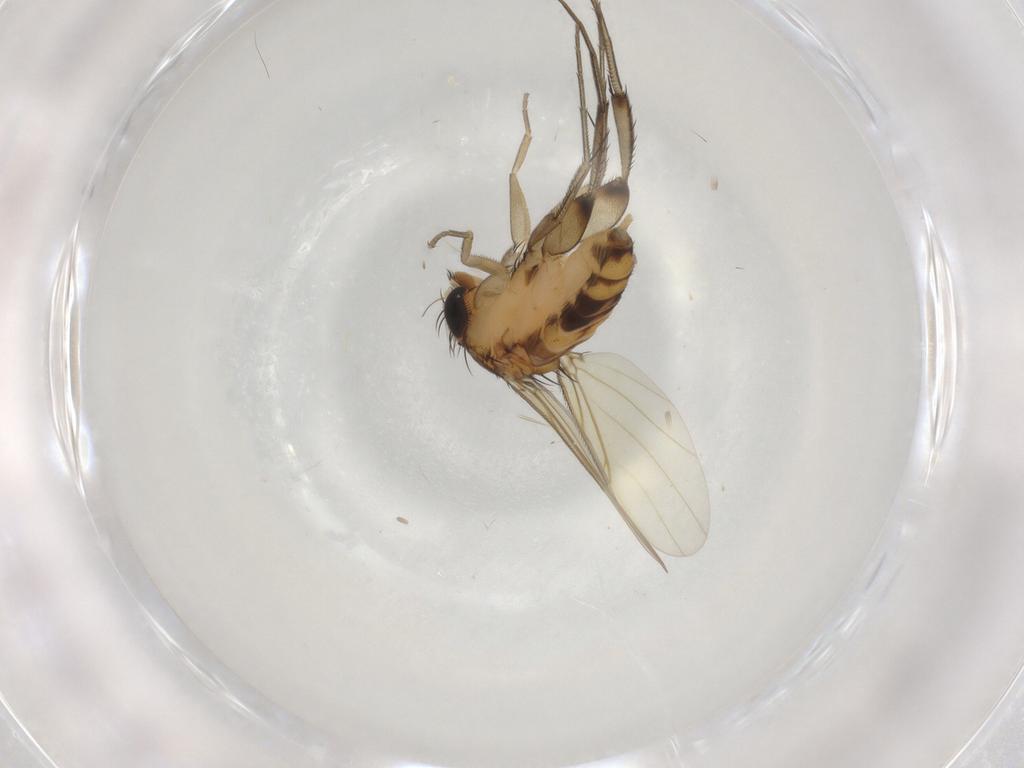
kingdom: Animalia
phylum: Arthropoda
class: Insecta
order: Diptera
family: Phoridae
